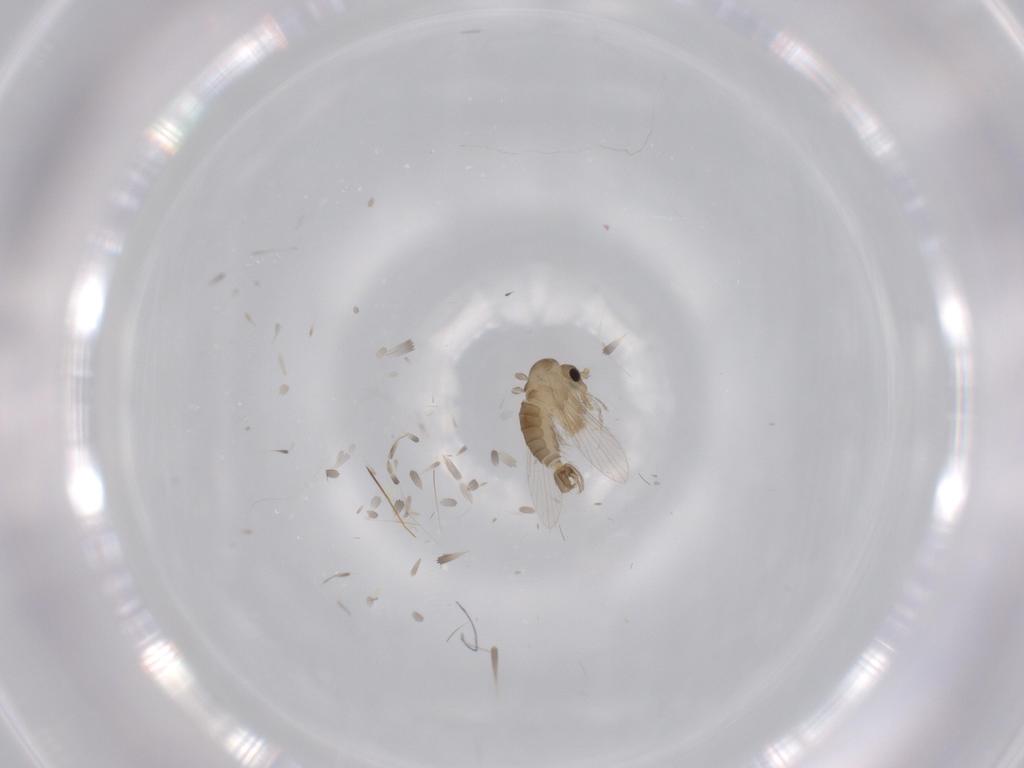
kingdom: Animalia
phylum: Arthropoda
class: Insecta
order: Diptera
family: Psychodidae
